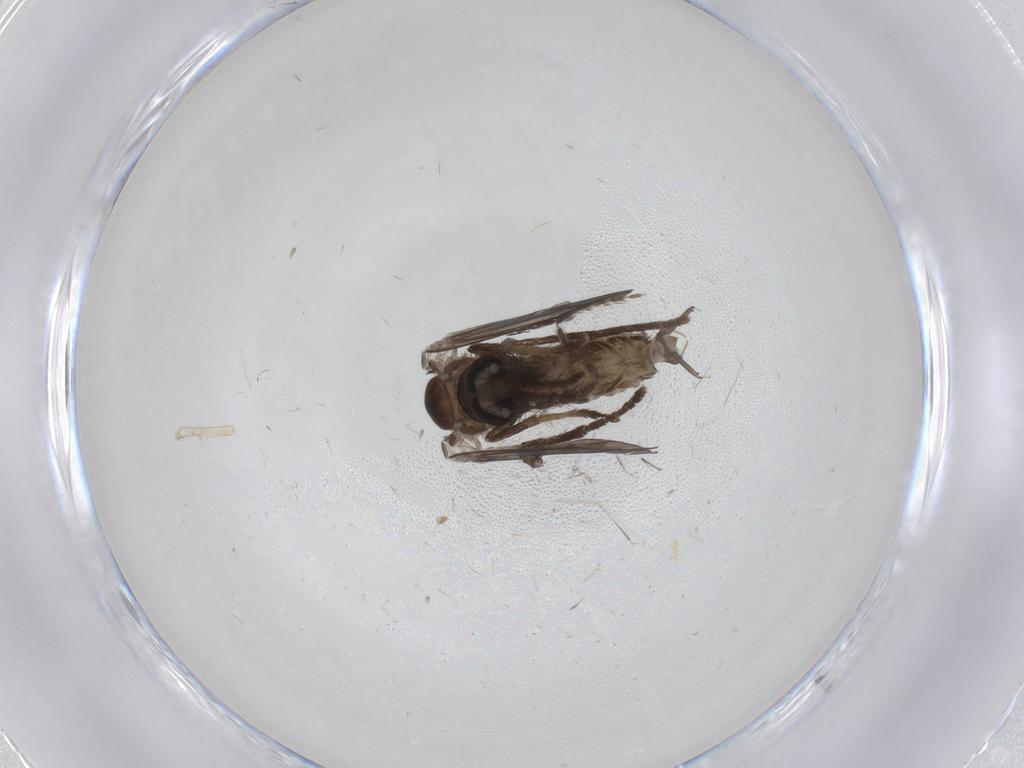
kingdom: Animalia
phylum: Arthropoda
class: Insecta
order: Diptera
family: Psychodidae
